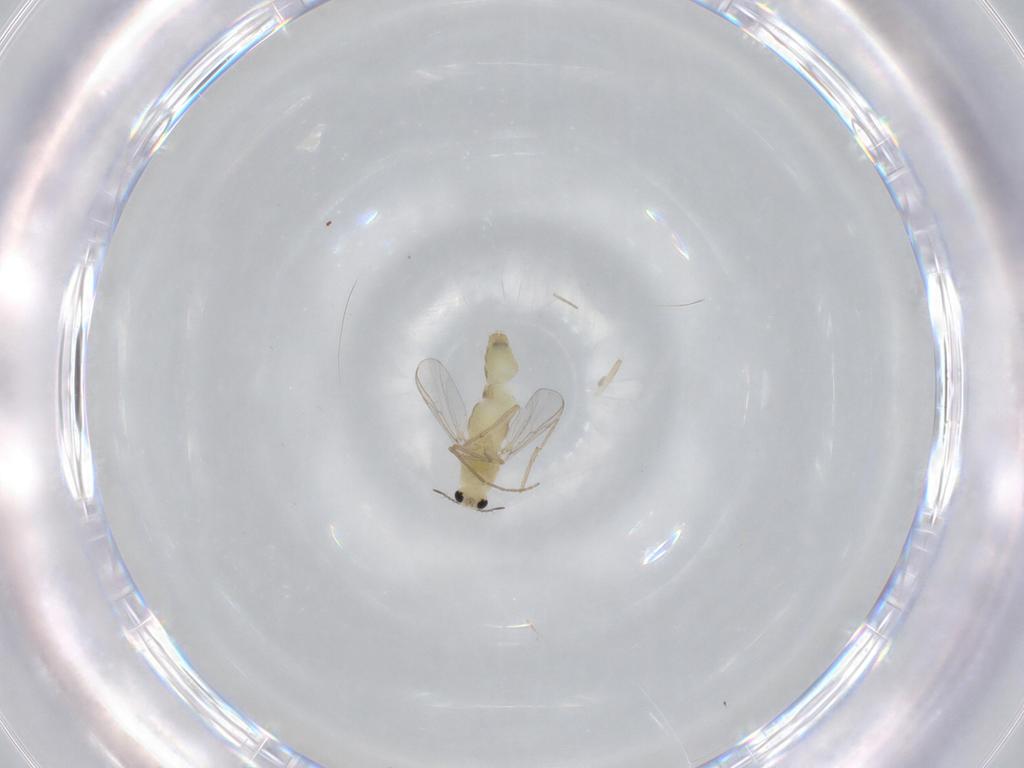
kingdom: Animalia
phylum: Arthropoda
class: Insecta
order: Diptera
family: Chironomidae
